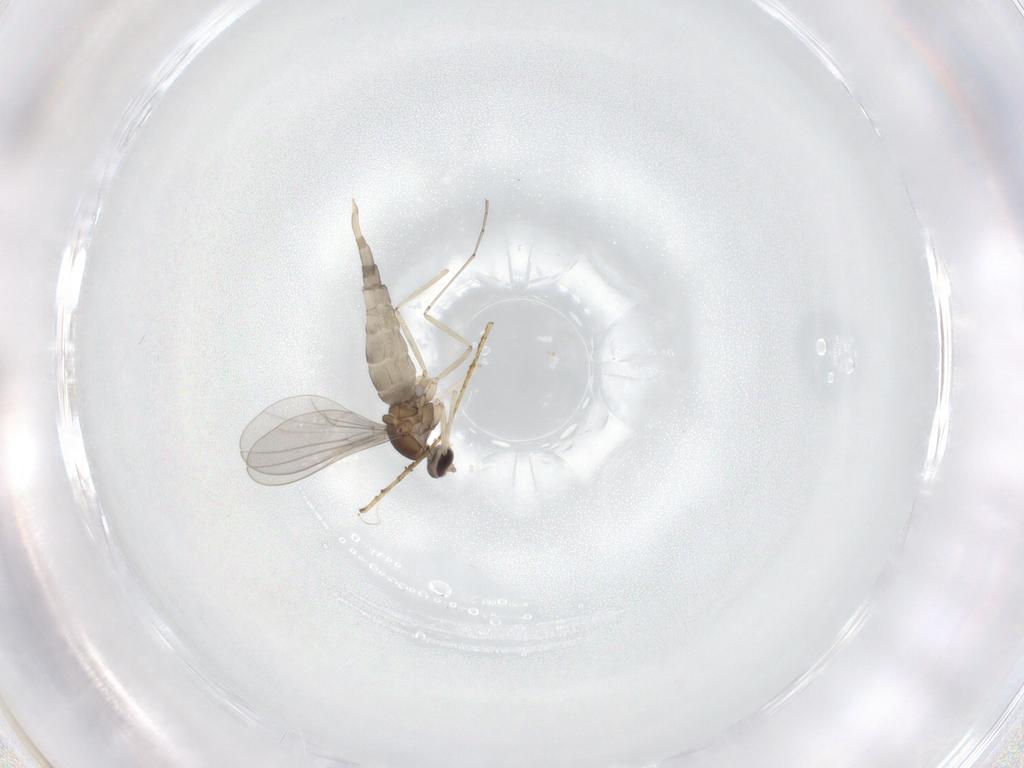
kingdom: Animalia
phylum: Arthropoda
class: Insecta
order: Diptera
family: Cecidomyiidae
